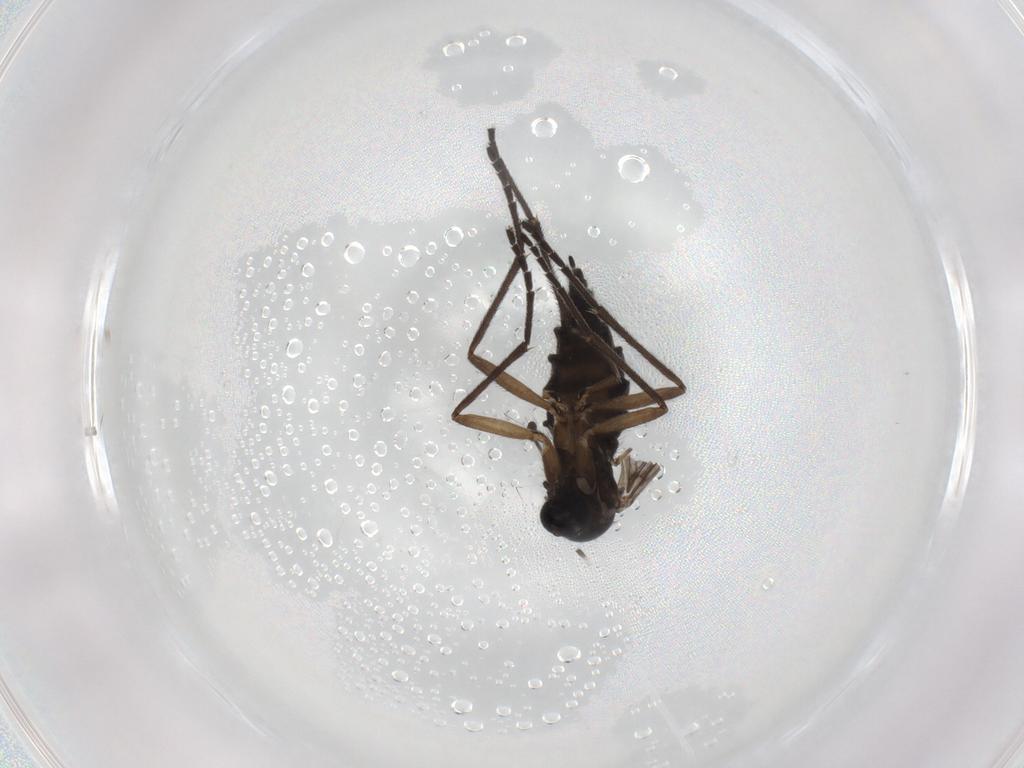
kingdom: Animalia
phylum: Arthropoda
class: Insecta
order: Diptera
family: Sciaridae
